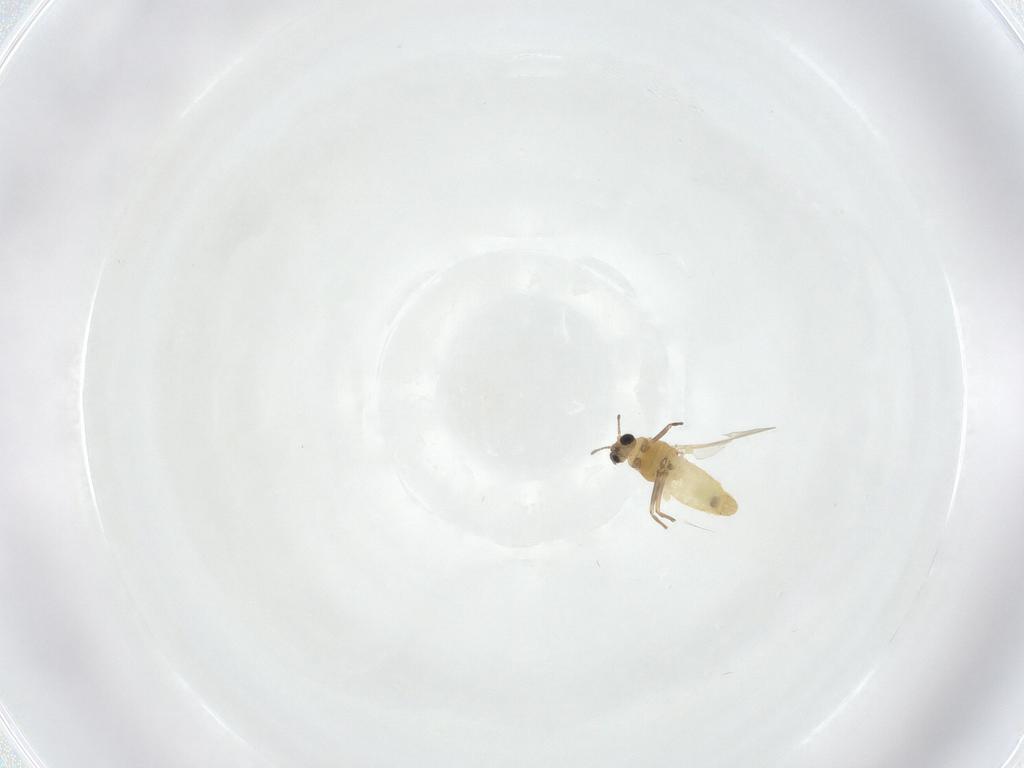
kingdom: Animalia
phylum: Arthropoda
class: Insecta
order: Diptera
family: Chironomidae
